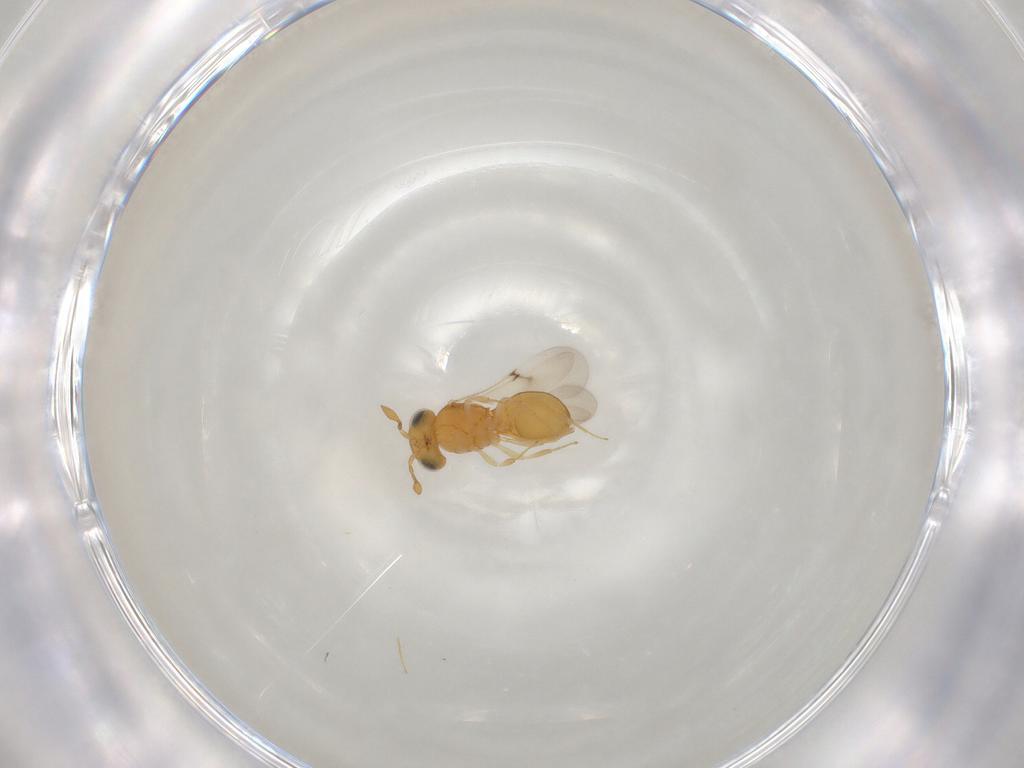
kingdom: Animalia
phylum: Arthropoda
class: Insecta
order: Hymenoptera
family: Scelionidae
